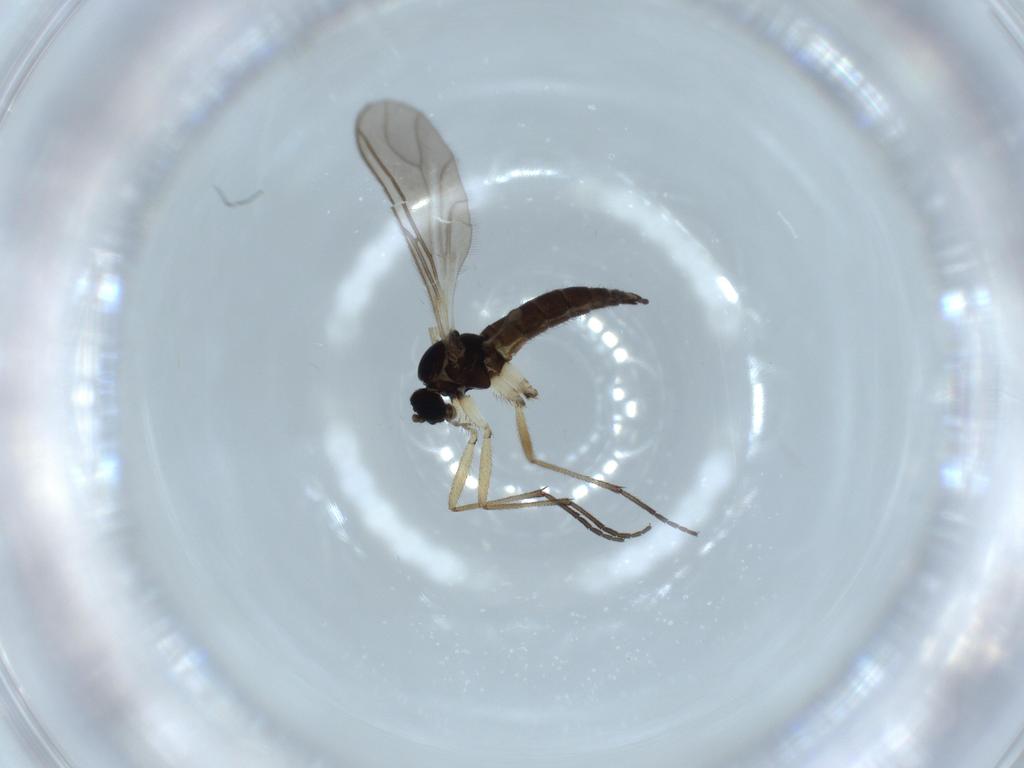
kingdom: Animalia
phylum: Arthropoda
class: Insecta
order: Diptera
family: Sciaridae
